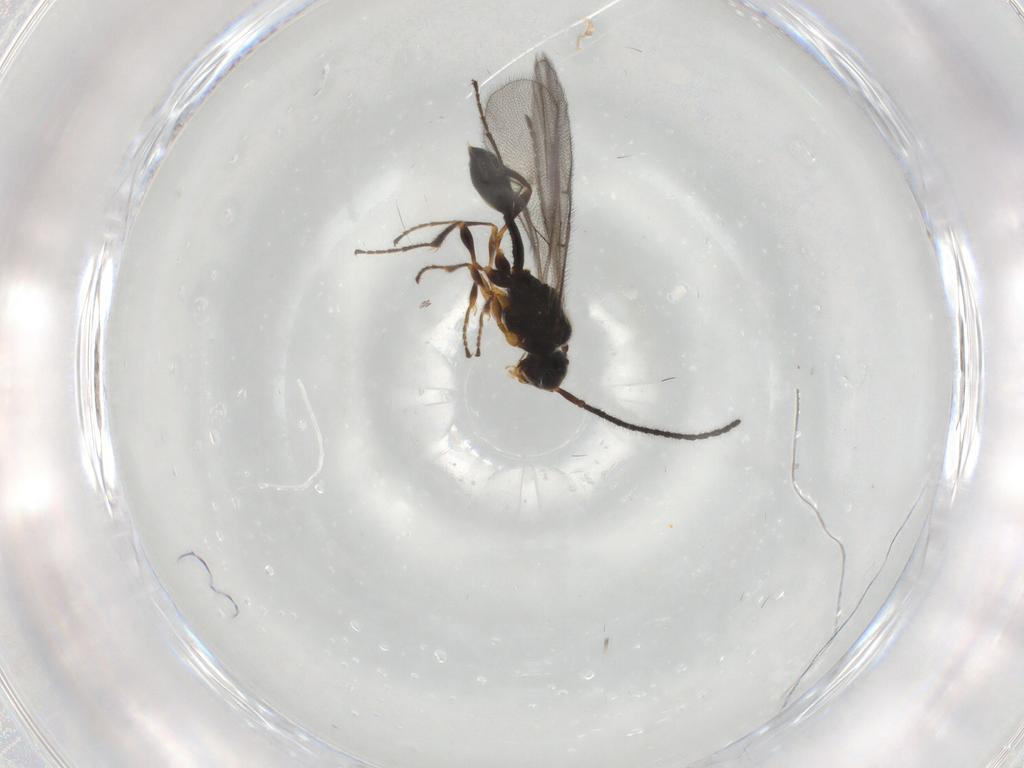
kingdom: Animalia
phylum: Arthropoda
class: Insecta
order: Hymenoptera
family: Diapriidae
